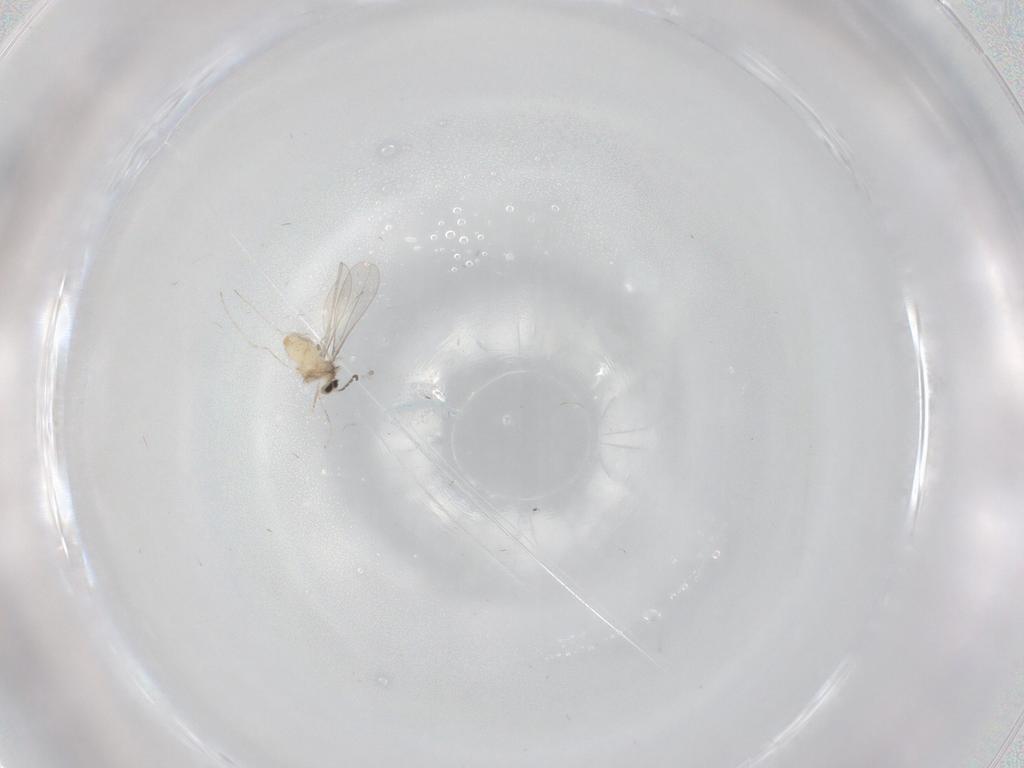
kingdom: Animalia
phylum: Arthropoda
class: Insecta
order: Diptera
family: Cecidomyiidae
